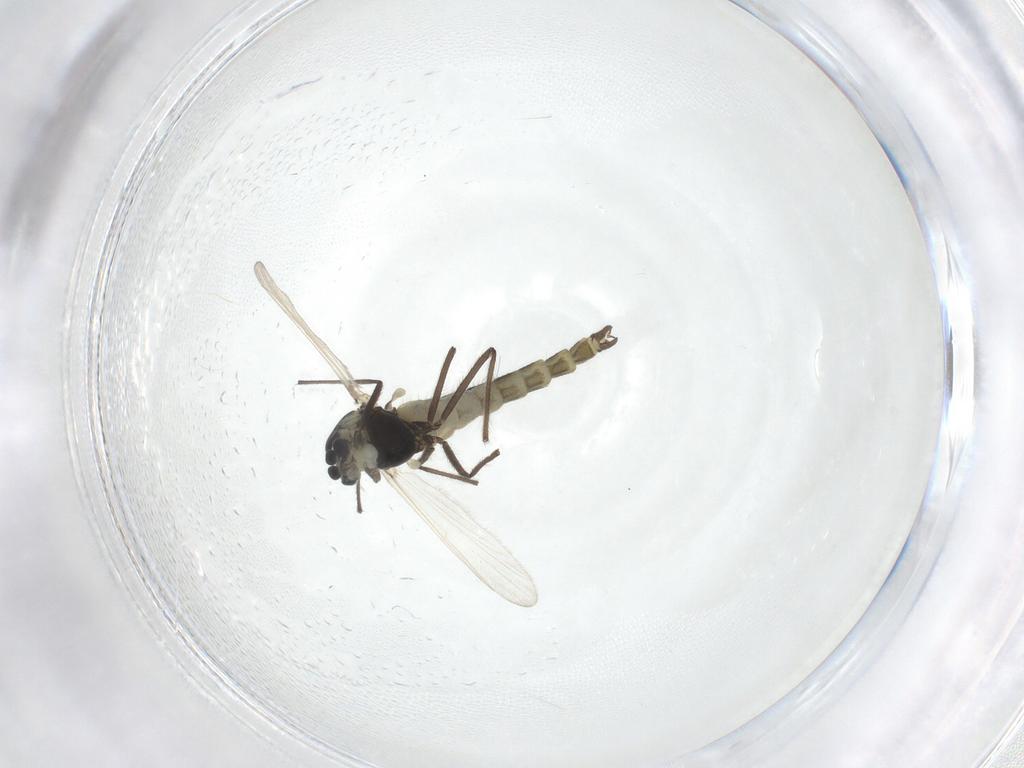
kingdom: Animalia
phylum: Arthropoda
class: Insecta
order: Diptera
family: Chironomidae
